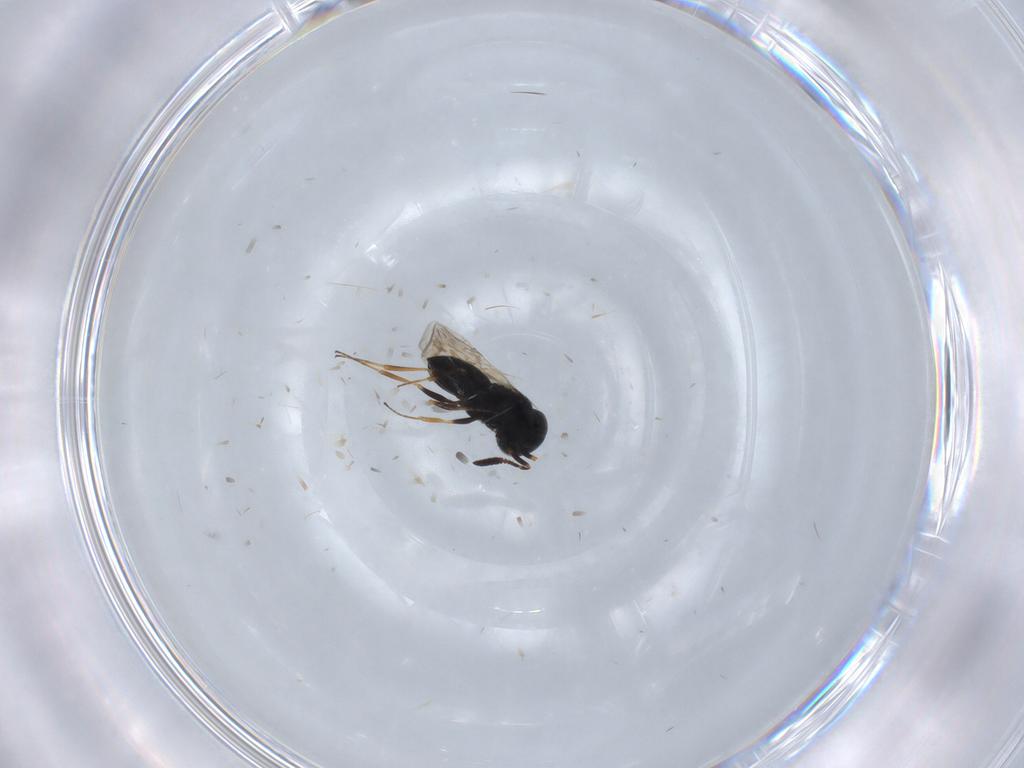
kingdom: Animalia
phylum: Arthropoda
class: Insecta
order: Hymenoptera
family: Scelionidae
